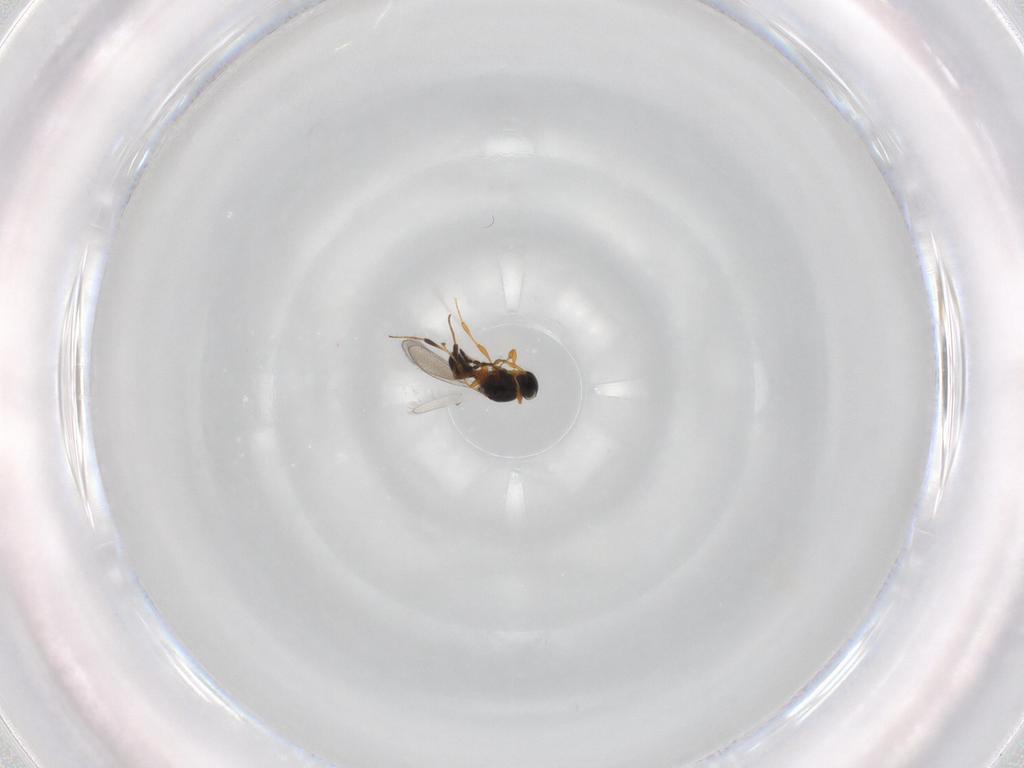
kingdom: Animalia
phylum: Arthropoda
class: Insecta
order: Hymenoptera
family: Platygastridae
